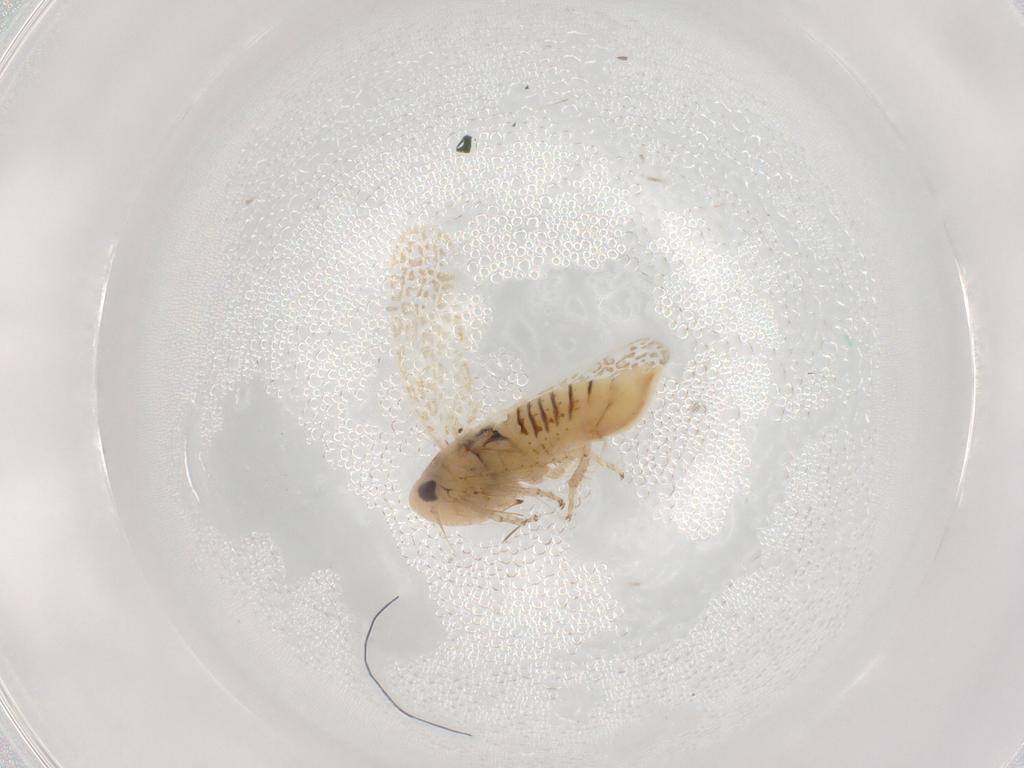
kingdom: Animalia
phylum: Arthropoda
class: Insecta
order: Hemiptera
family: Cicadellidae
